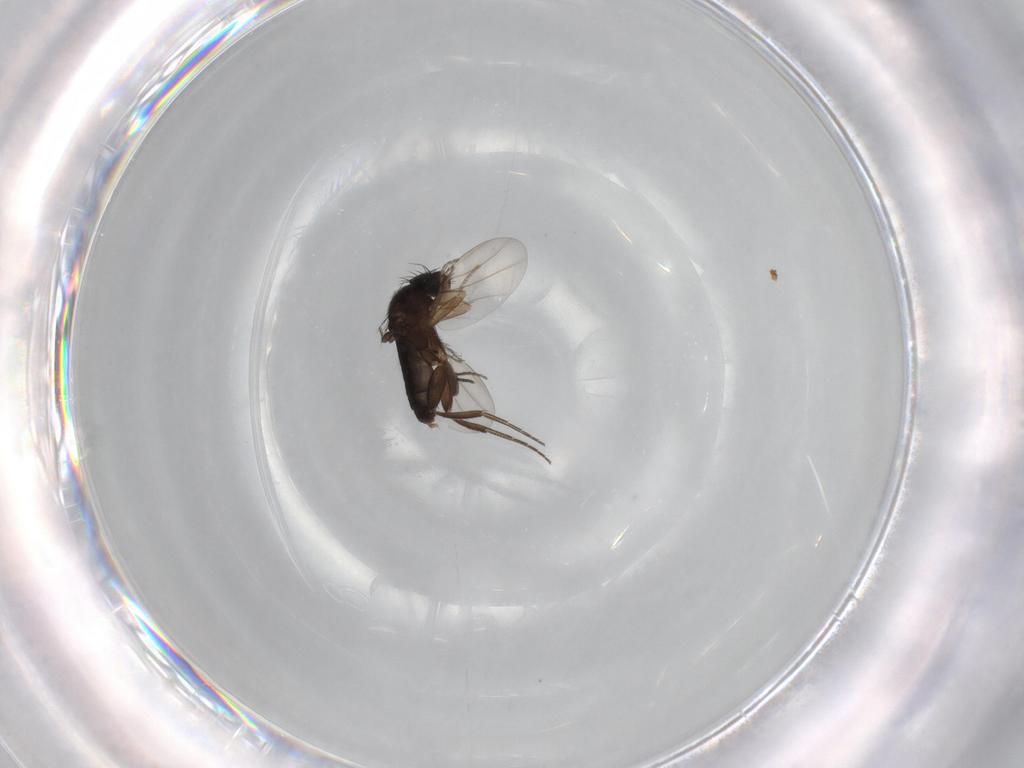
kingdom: Animalia
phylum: Arthropoda
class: Insecta
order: Diptera
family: Phoridae
